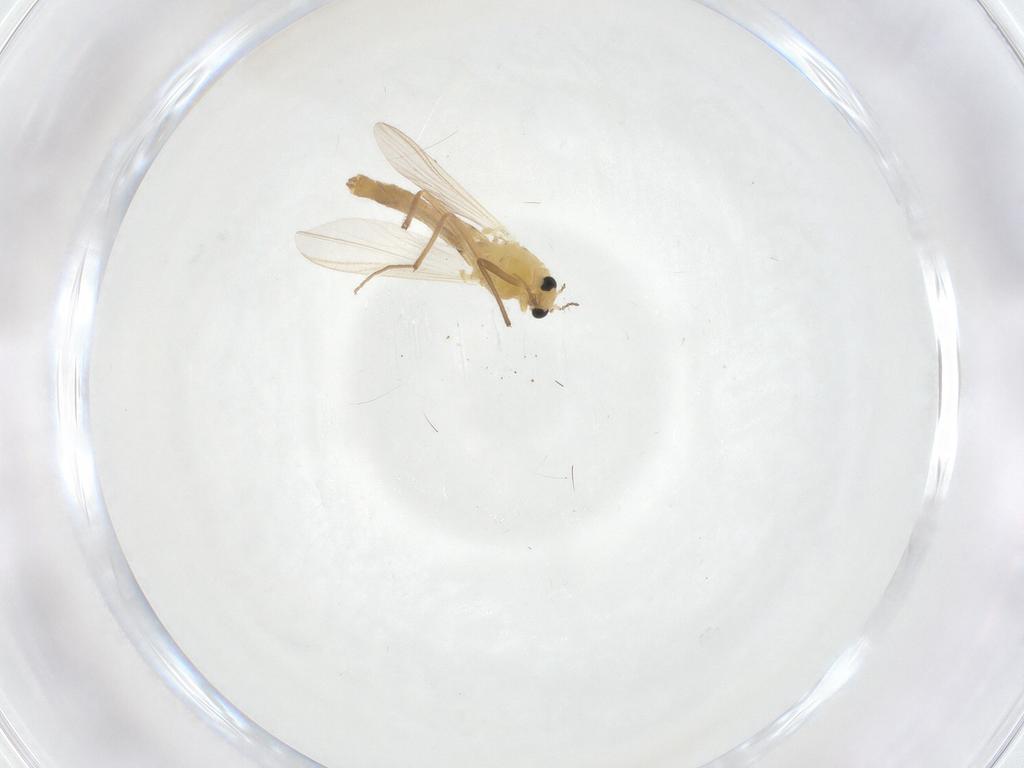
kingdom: Animalia
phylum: Arthropoda
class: Insecta
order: Diptera
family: Chironomidae
